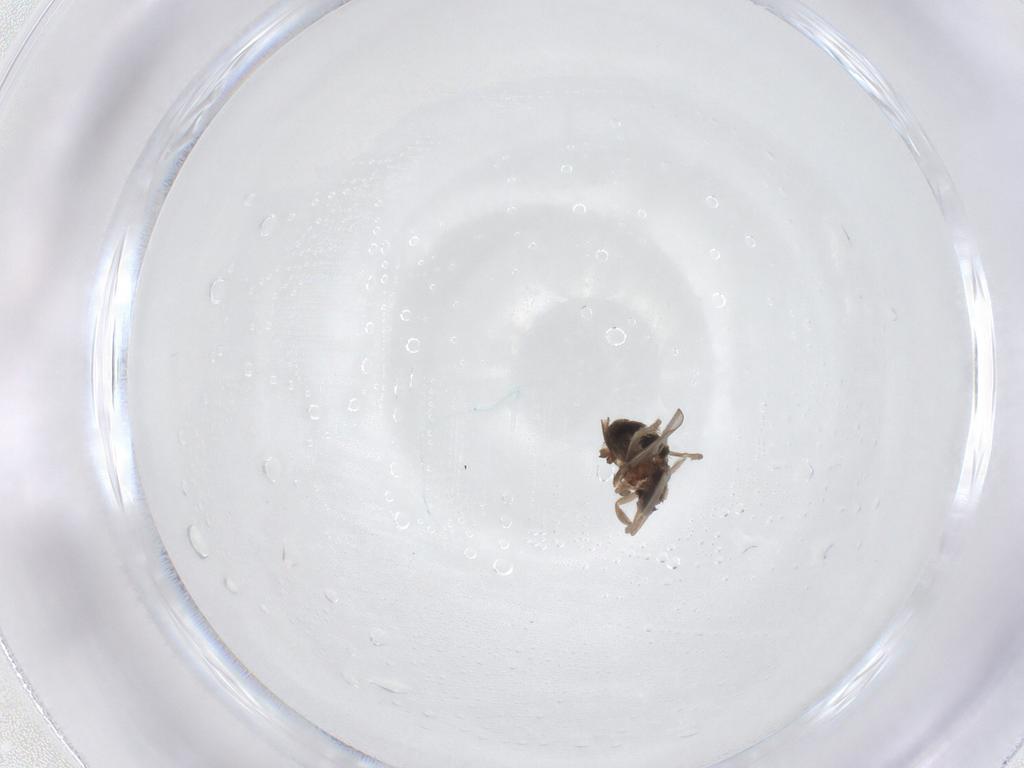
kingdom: Animalia
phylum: Arthropoda
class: Insecta
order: Diptera
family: Cecidomyiidae
